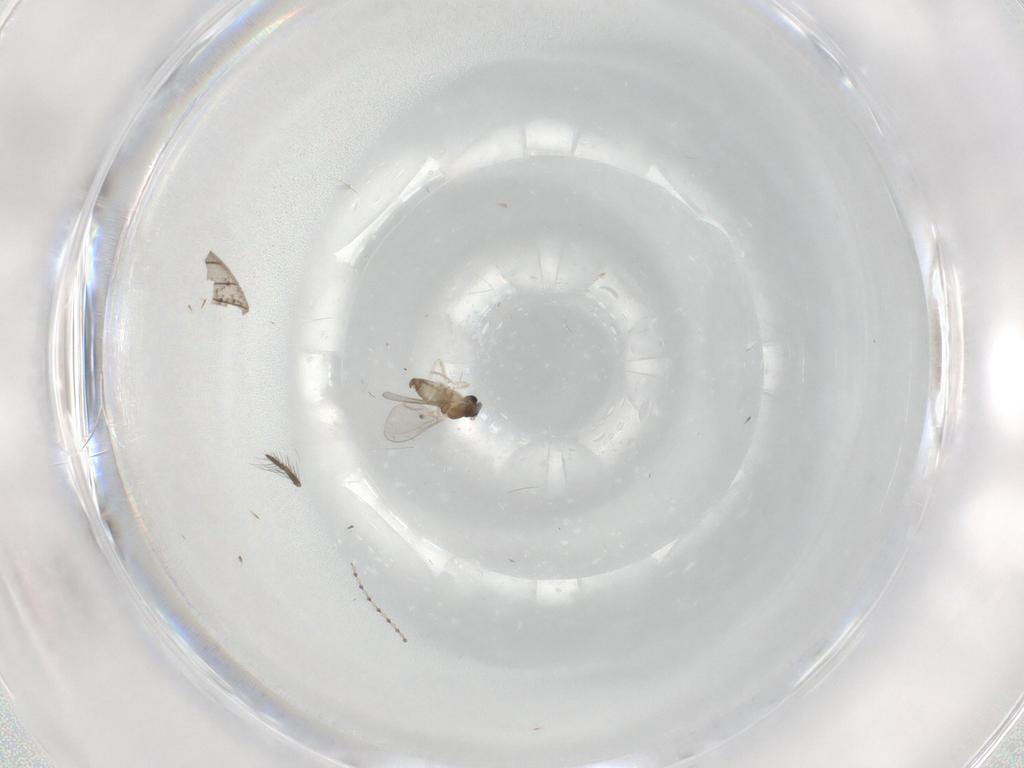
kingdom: Animalia
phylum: Arthropoda
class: Insecta
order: Diptera
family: Cecidomyiidae
